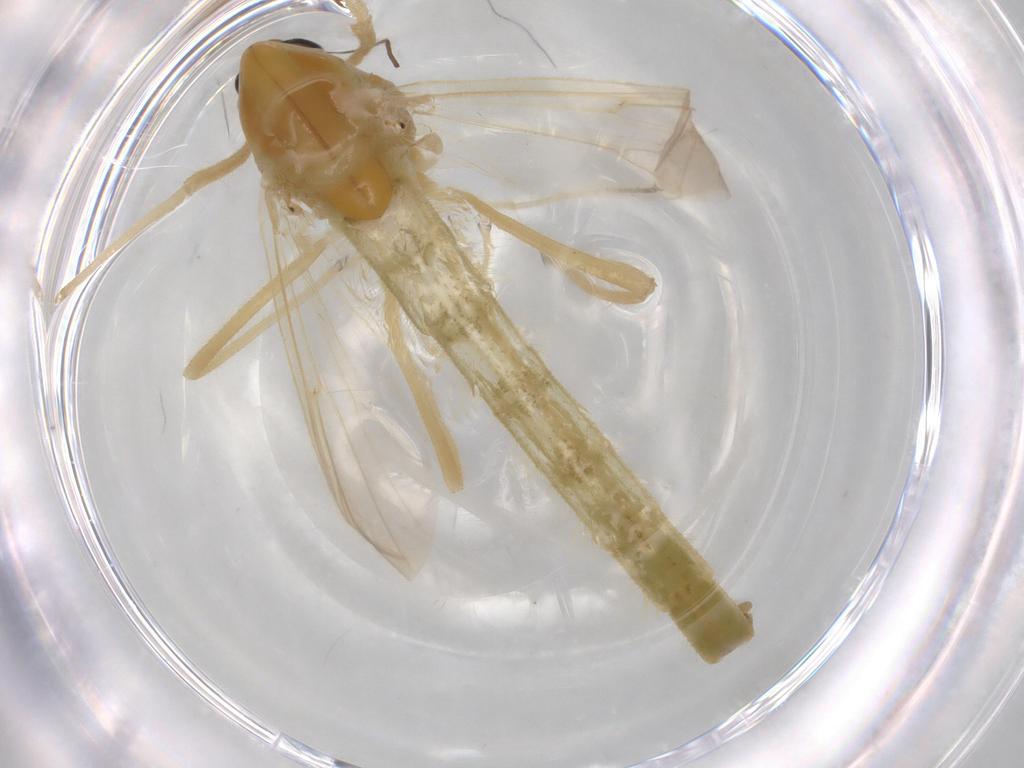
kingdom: Animalia
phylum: Arthropoda
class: Insecta
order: Diptera
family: Chironomidae
